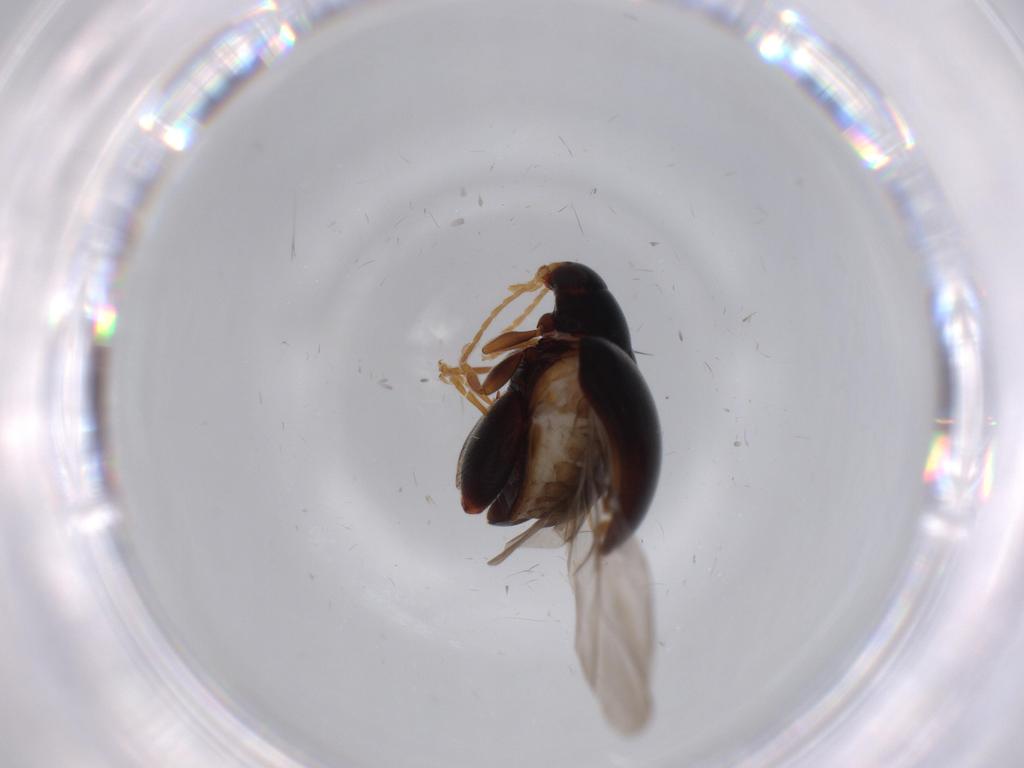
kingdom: Animalia
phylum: Arthropoda
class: Insecta
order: Coleoptera
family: Chrysomelidae
